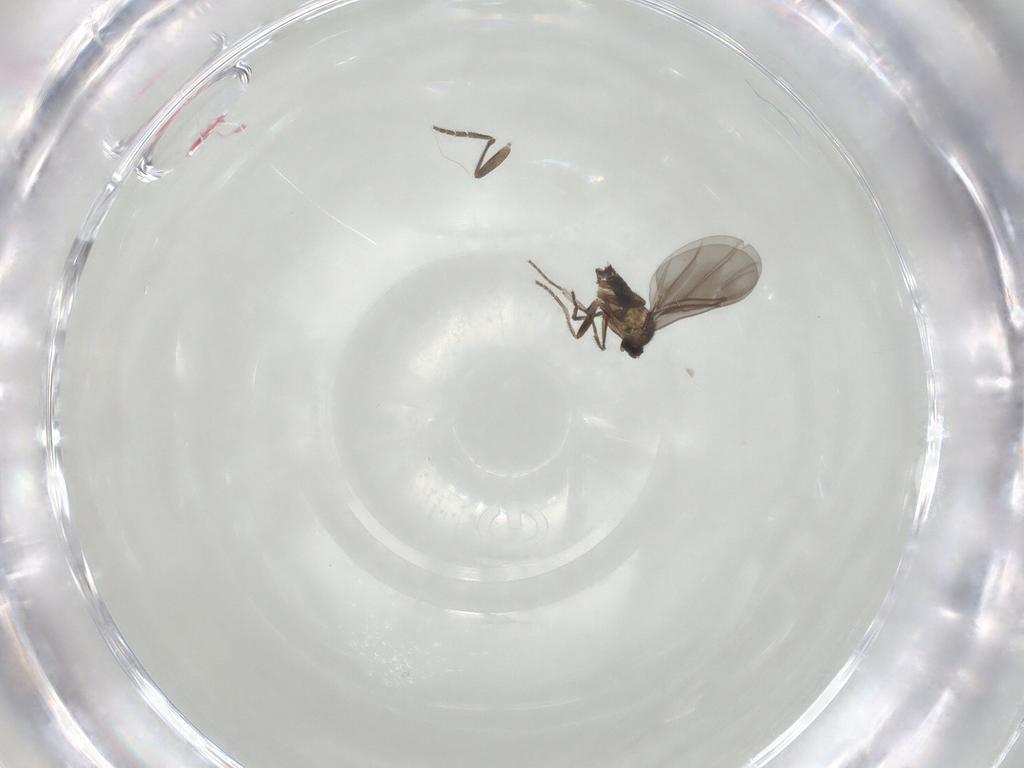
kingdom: Animalia
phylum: Arthropoda
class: Insecta
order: Diptera
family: Phoridae
